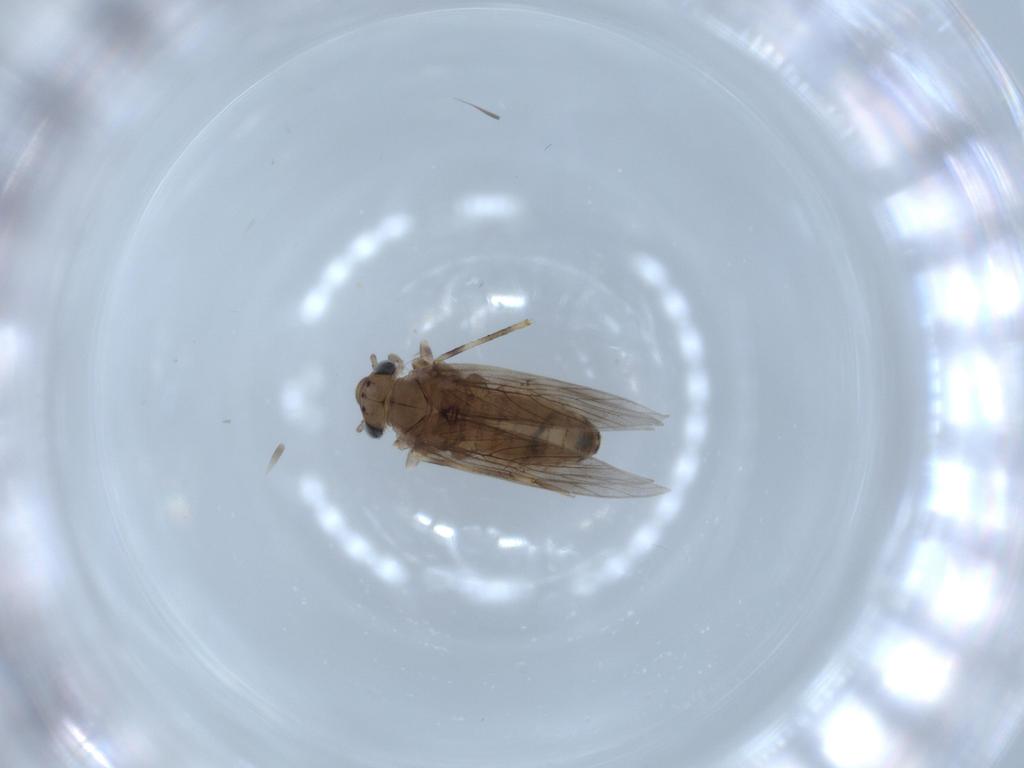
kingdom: Animalia
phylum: Arthropoda
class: Insecta
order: Psocodea
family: Lepidopsocidae
